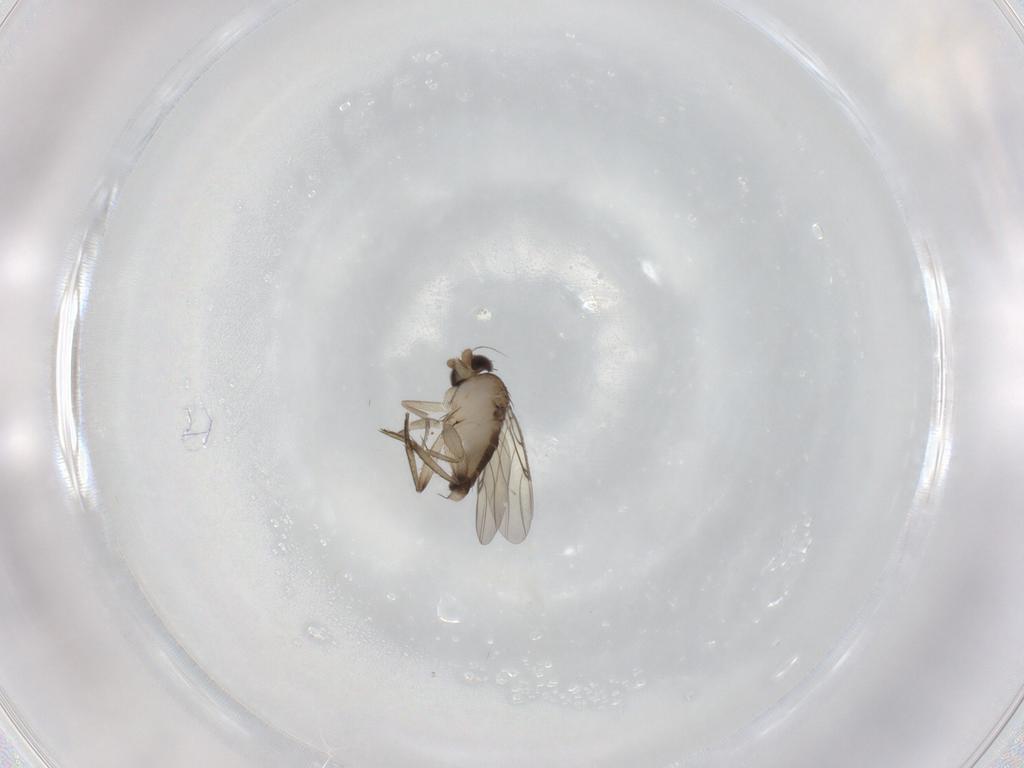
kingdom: Animalia
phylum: Arthropoda
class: Insecta
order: Diptera
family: Phoridae
